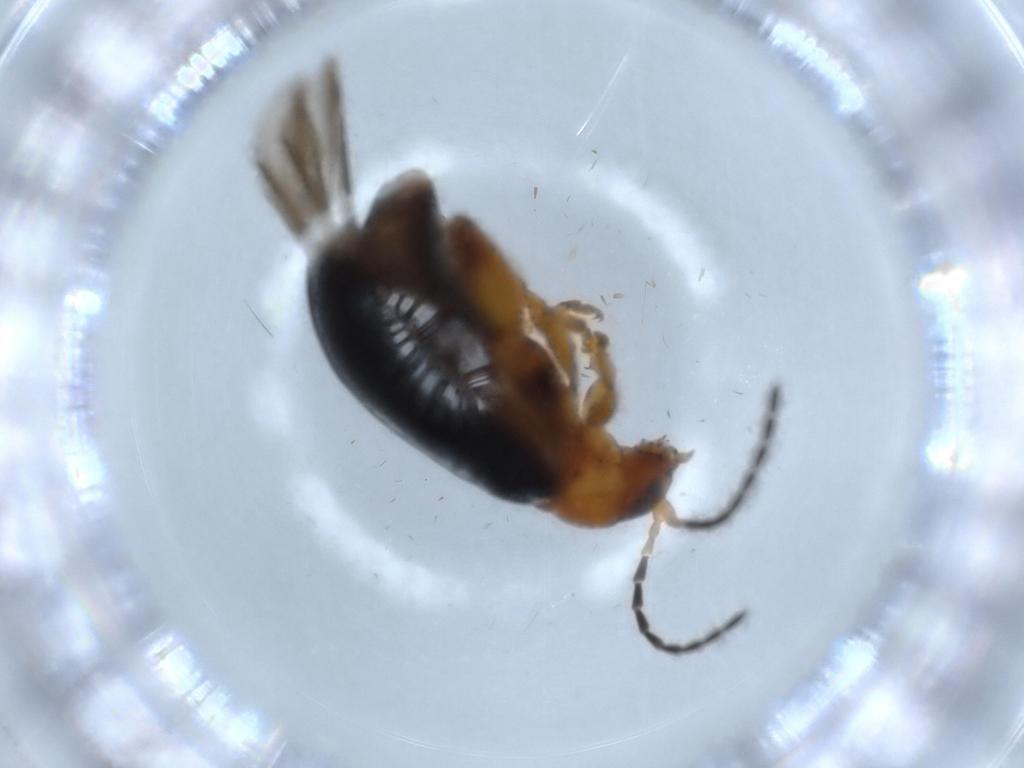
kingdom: Animalia
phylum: Arthropoda
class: Insecta
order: Coleoptera
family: Chrysomelidae
